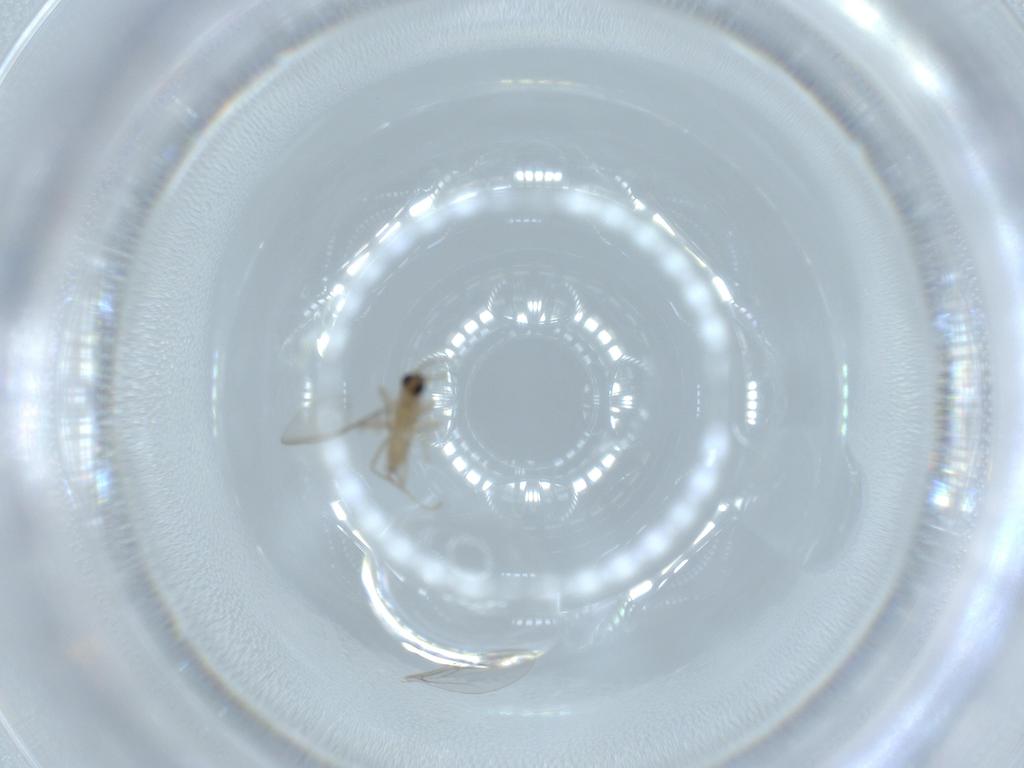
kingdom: Animalia
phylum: Arthropoda
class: Insecta
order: Diptera
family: Cecidomyiidae
